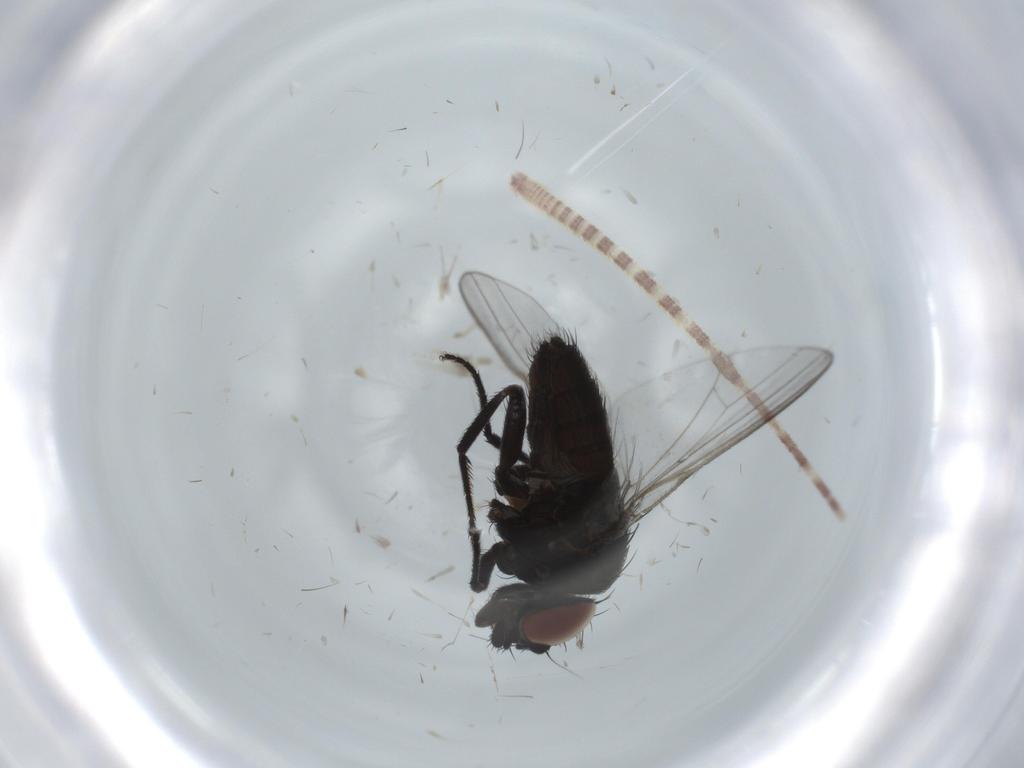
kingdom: Animalia
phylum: Arthropoda
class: Insecta
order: Diptera
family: Milichiidae
